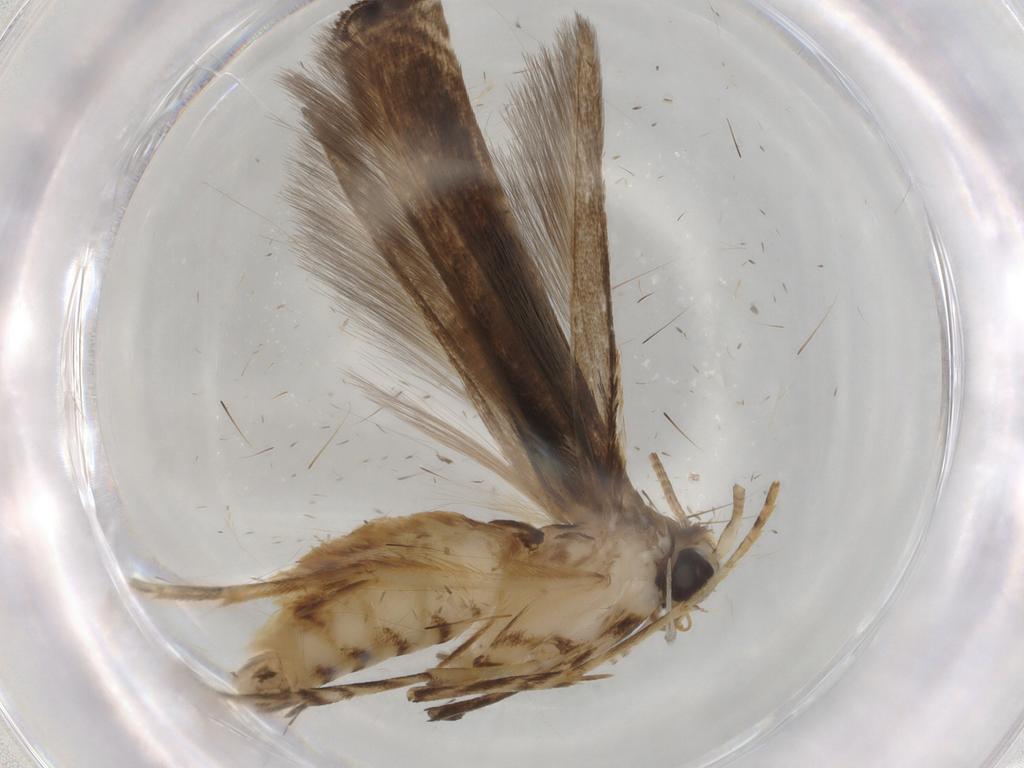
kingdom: Animalia
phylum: Arthropoda
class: Insecta
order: Lepidoptera
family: Gracillariidae
